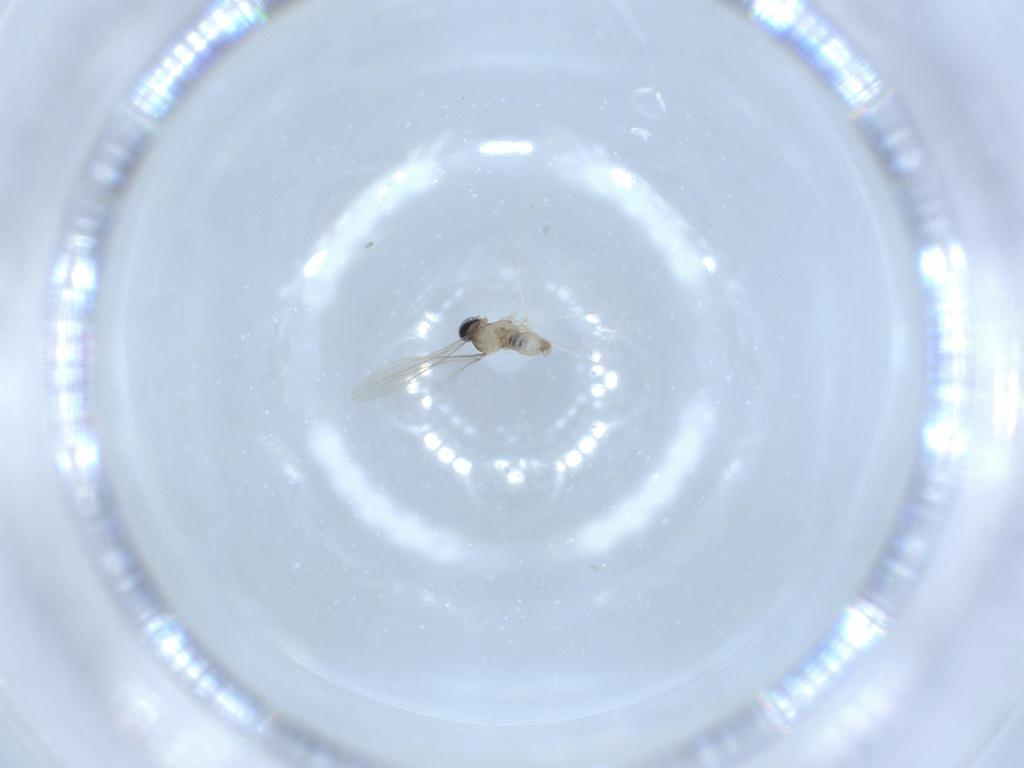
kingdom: Animalia
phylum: Arthropoda
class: Insecta
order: Diptera
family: Cecidomyiidae
